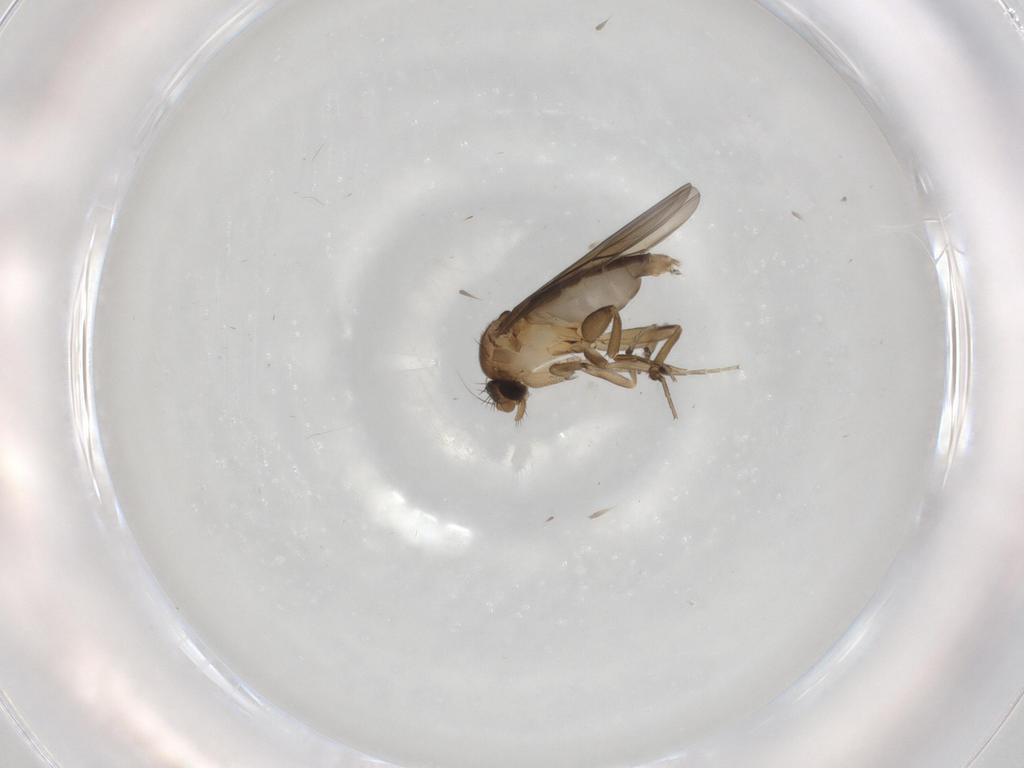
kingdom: Animalia
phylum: Arthropoda
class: Insecta
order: Diptera
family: Phoridae
